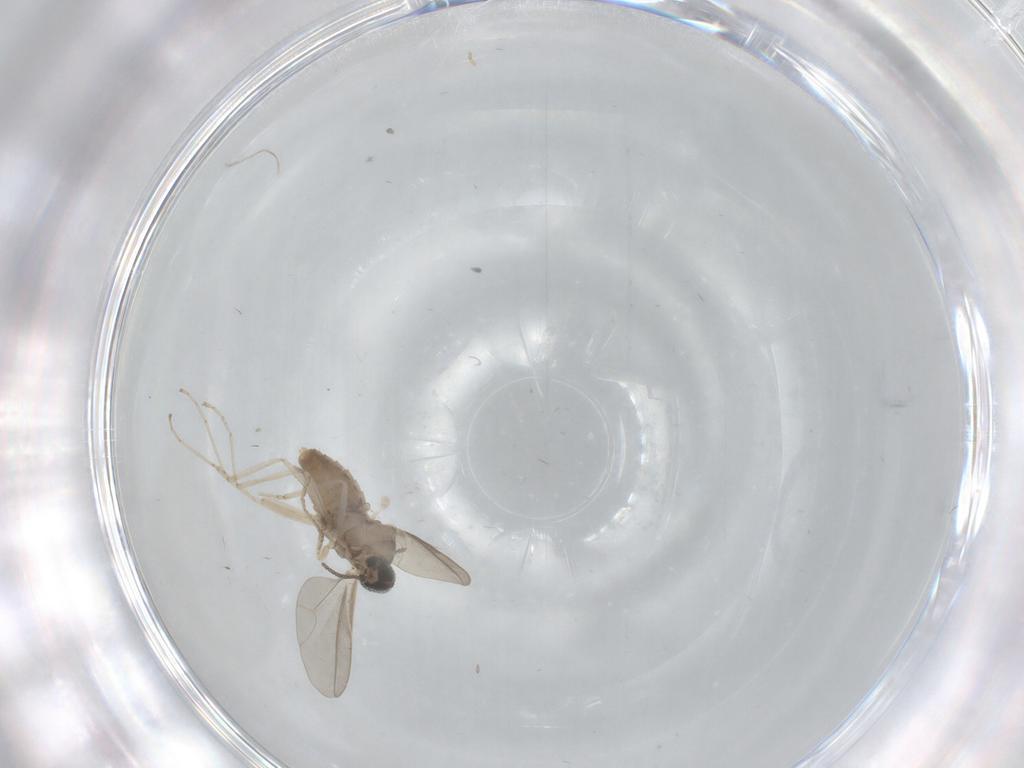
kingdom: Animalia
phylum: Arthropoda
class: Insecta
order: Diptera
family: Cecidomyiidae
